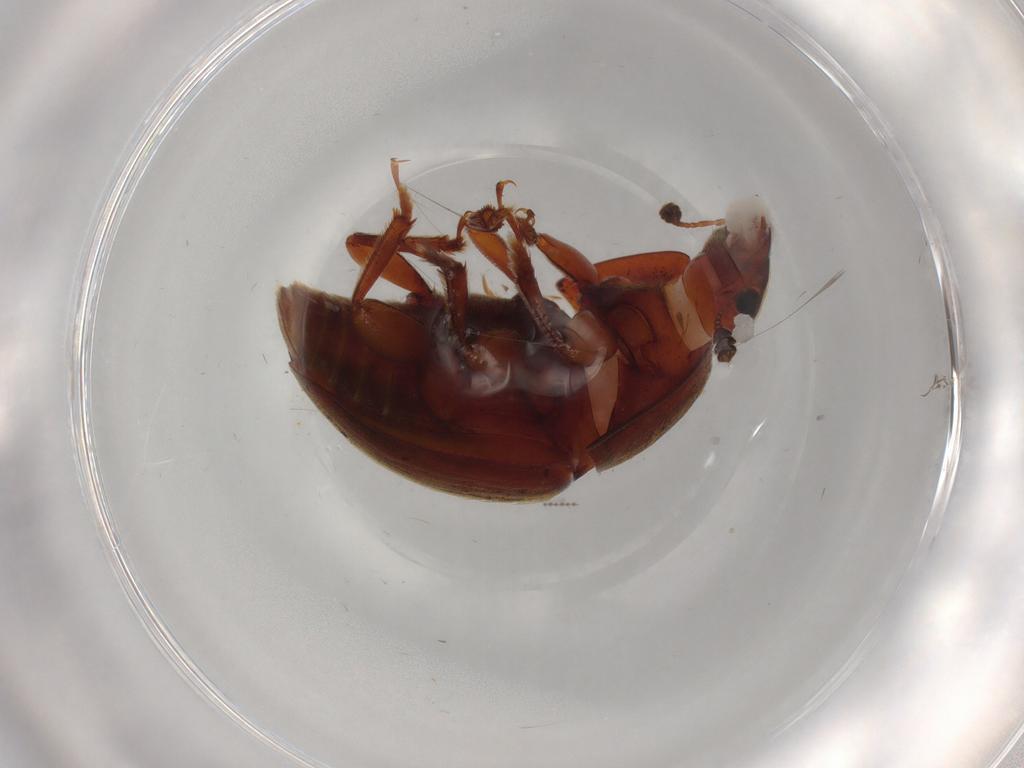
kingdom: Animalia
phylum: Arthropoda
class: Insecta
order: Coleoptera
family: Nitidulidae
